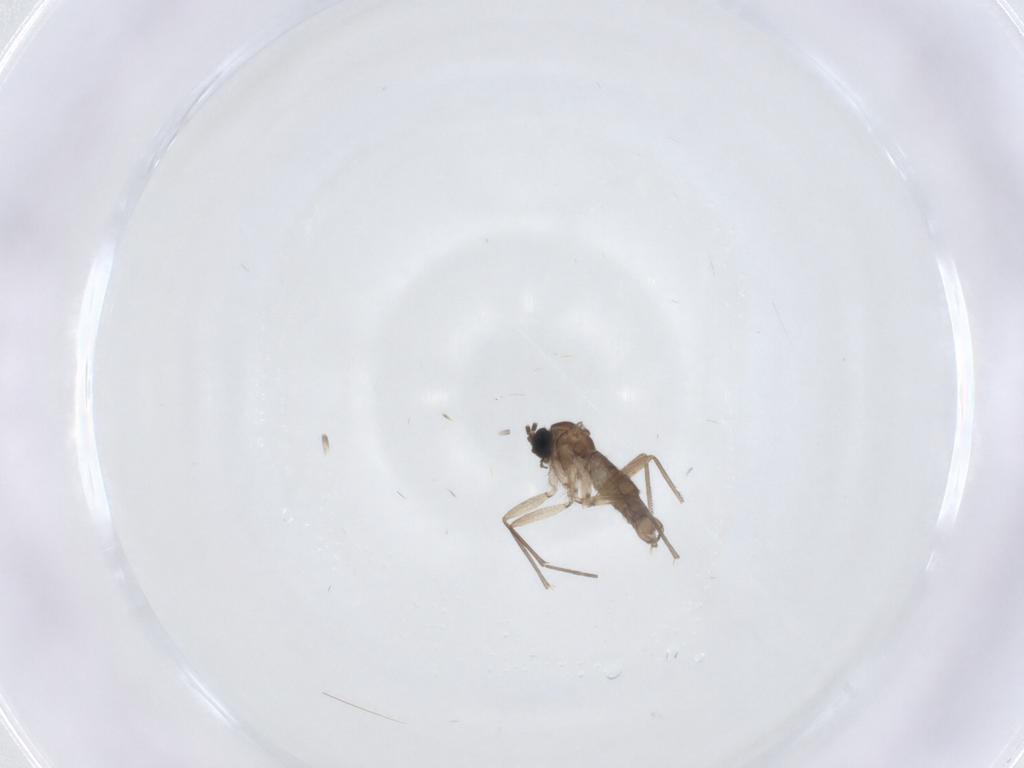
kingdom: Animalia
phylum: Arthropoda
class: Insecta
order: Diptera
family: Sciaridae
